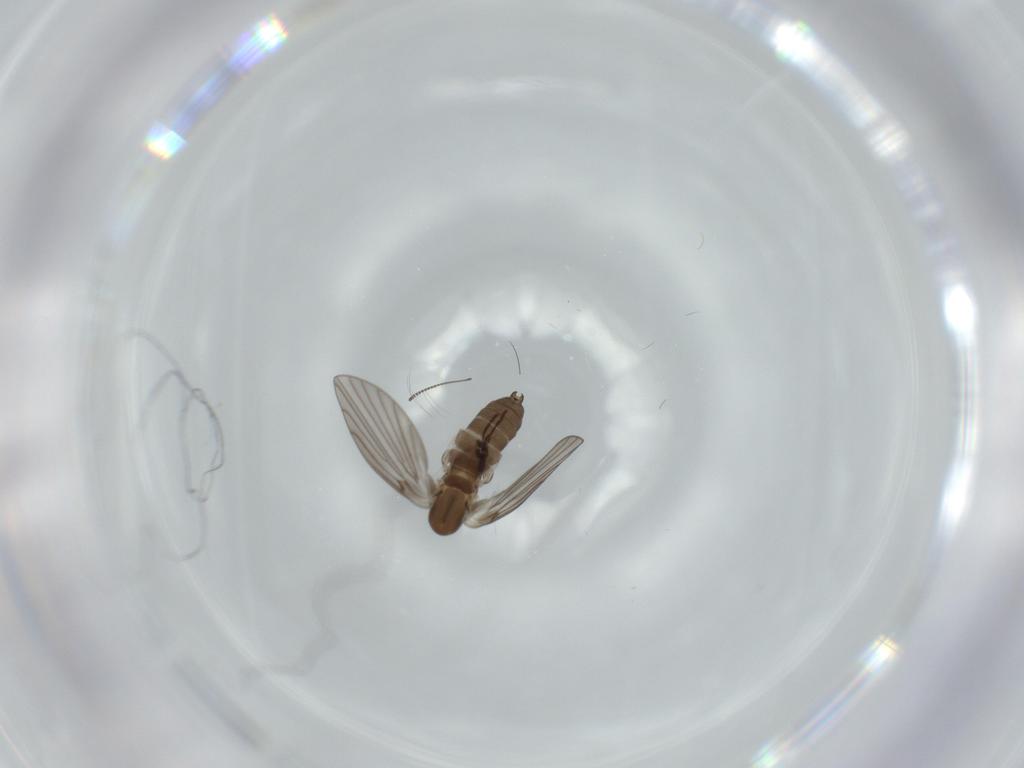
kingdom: Animalia
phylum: Arthropoda
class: Insecta
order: Diptera
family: Psychodidae
